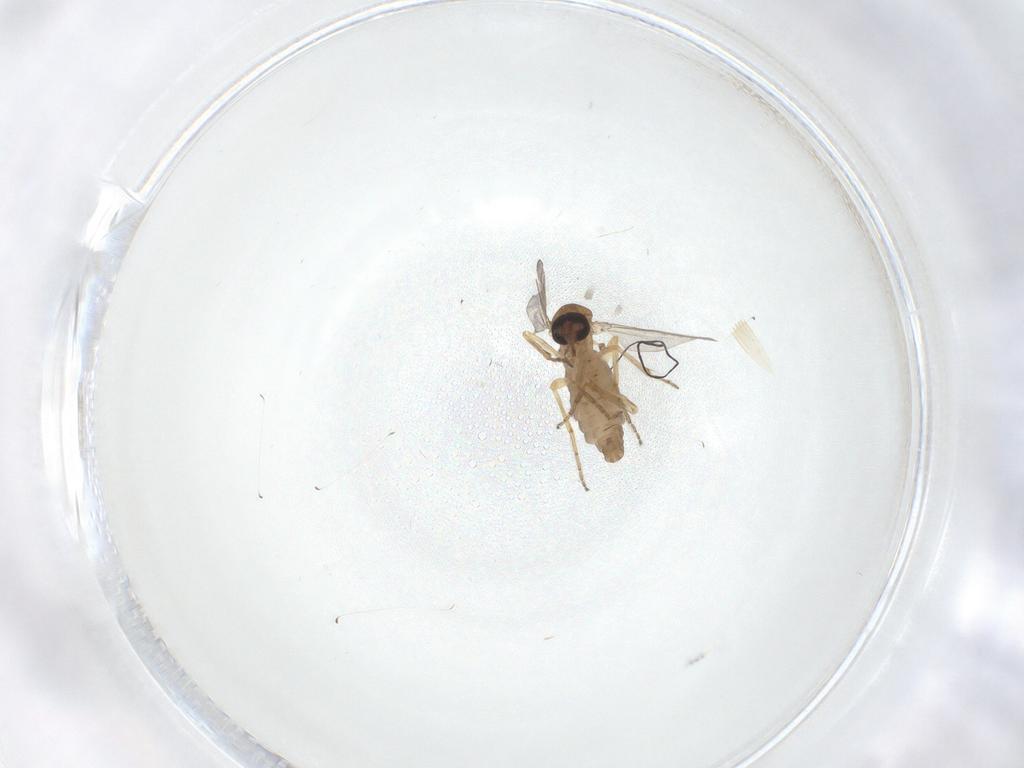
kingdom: Animalia
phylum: Arthropoda
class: Insecta
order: Diptera
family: Ceratopogonidae
